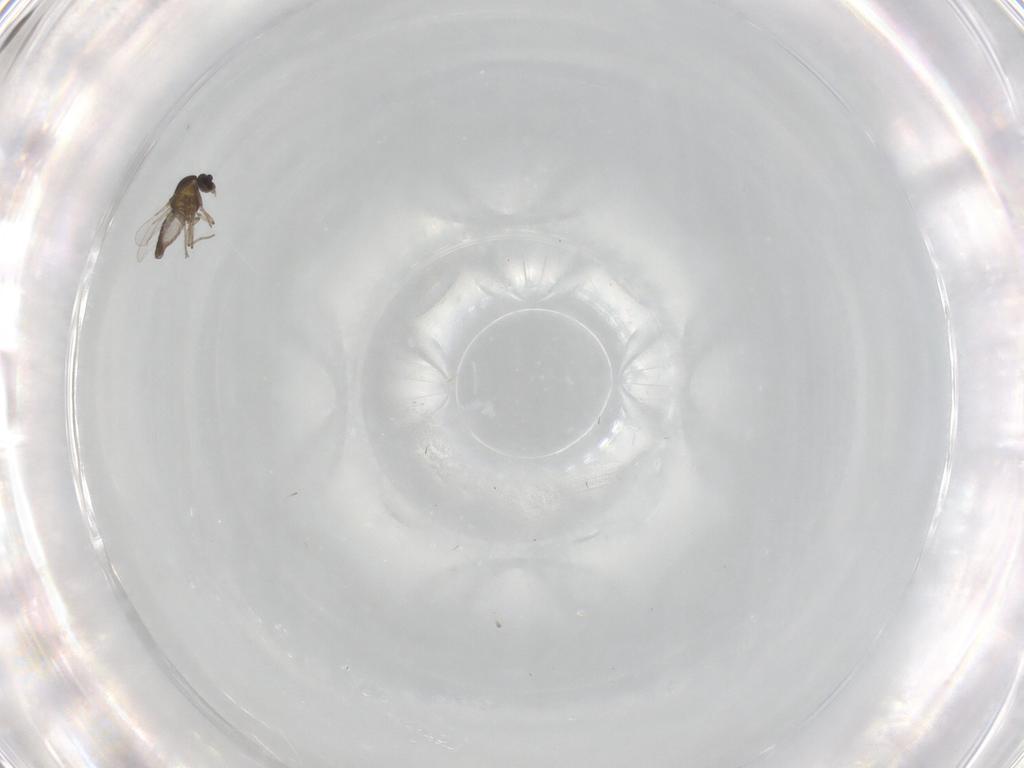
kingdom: Animalia
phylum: Arthropoda
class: Insecta
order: Diptera
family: Ceratopogonidae
